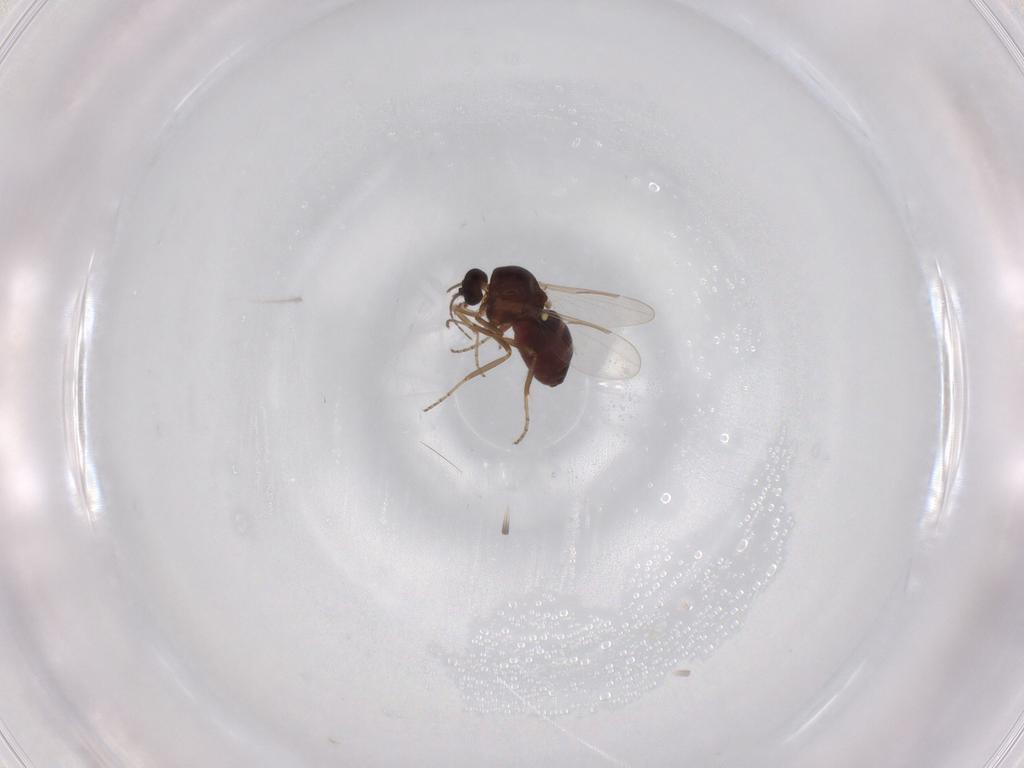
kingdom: Animalia
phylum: Arthropoda
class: Insecta
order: Diptera
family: Ceratopogonidae
